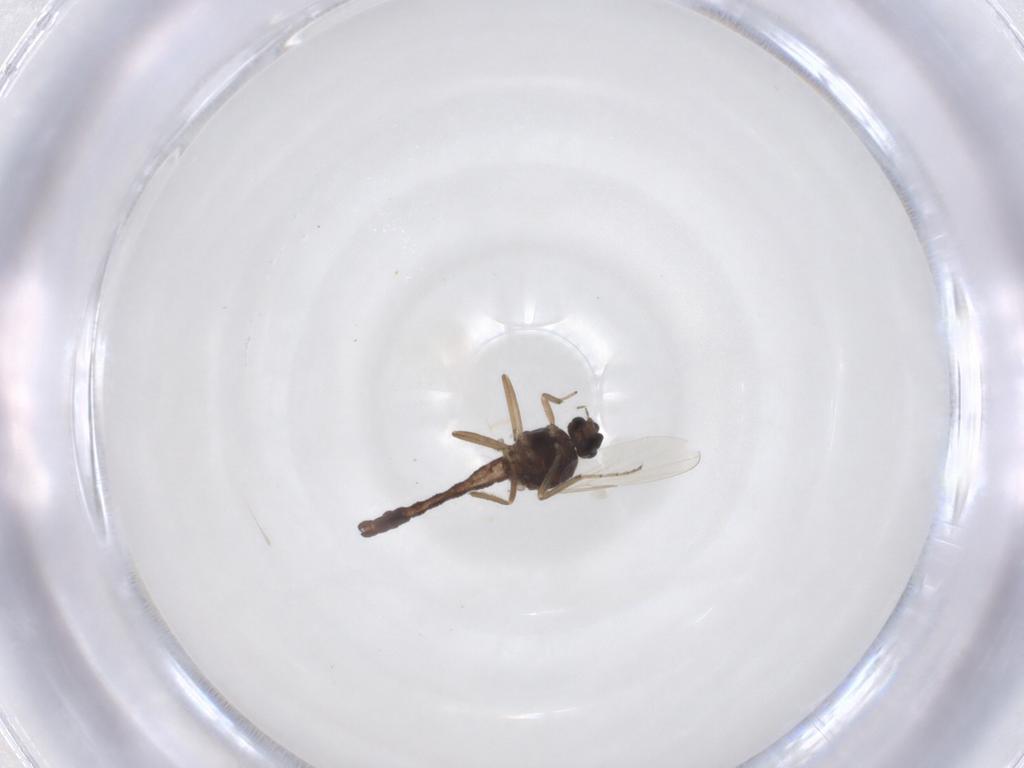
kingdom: Animalia
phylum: Arthropoda
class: Insecta
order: Diptera
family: Ceratopogonidae
